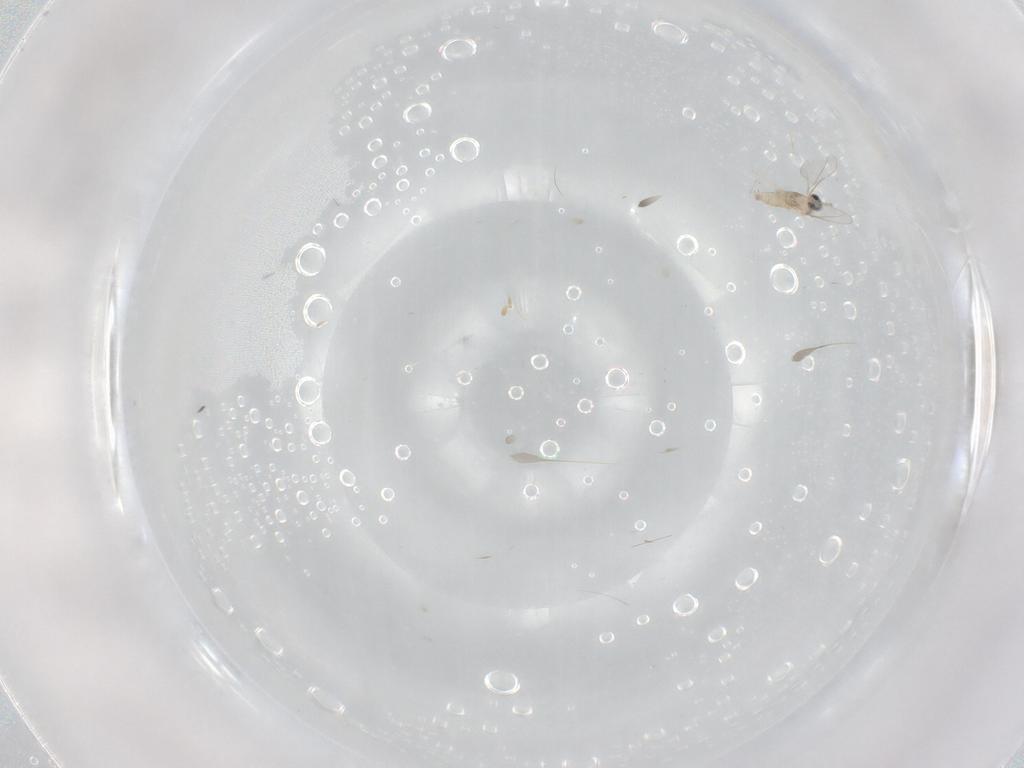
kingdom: Animalia
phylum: Arthropoda
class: Insecta
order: Diptera
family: Cecidomyiidae
